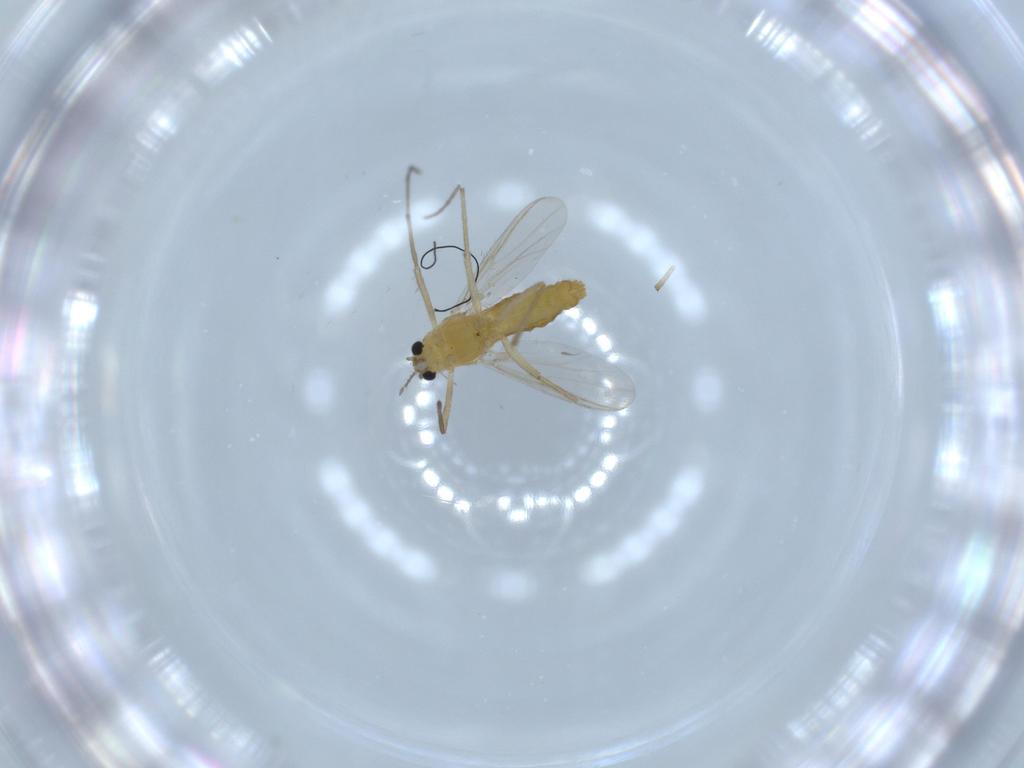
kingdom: Animalia
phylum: Arthropoda
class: Insecta
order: Diptera
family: Chironomidae
